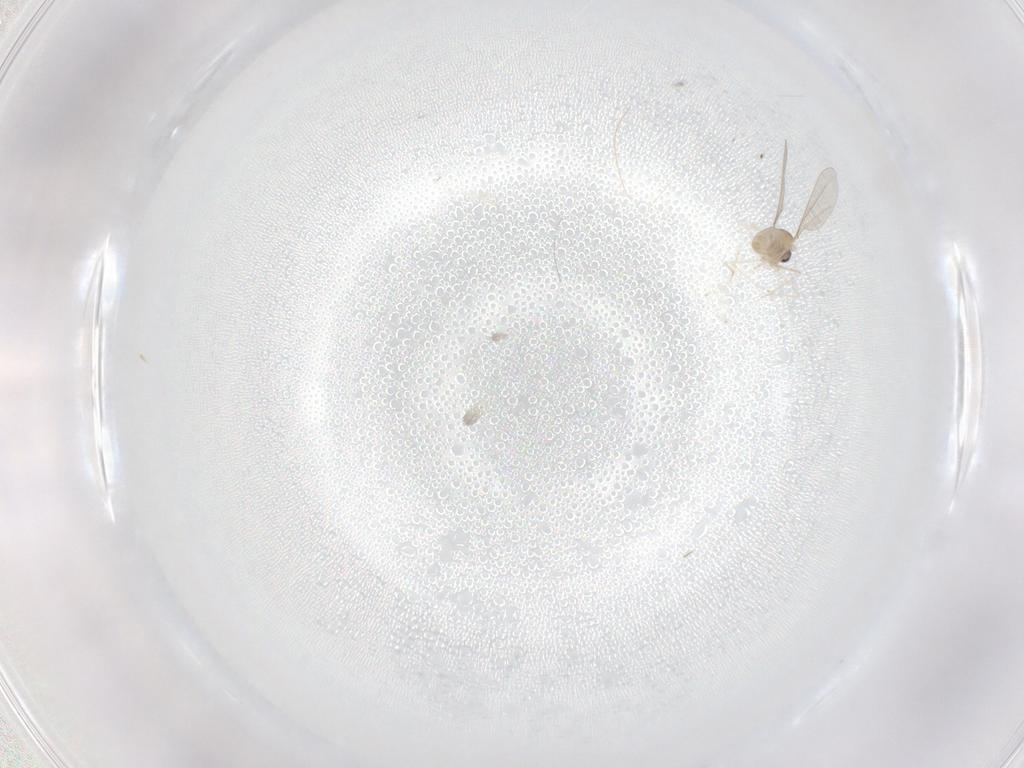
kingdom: Animalia
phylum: Arthropoda
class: Insecta
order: Diptera
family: Cecidomyiidae
